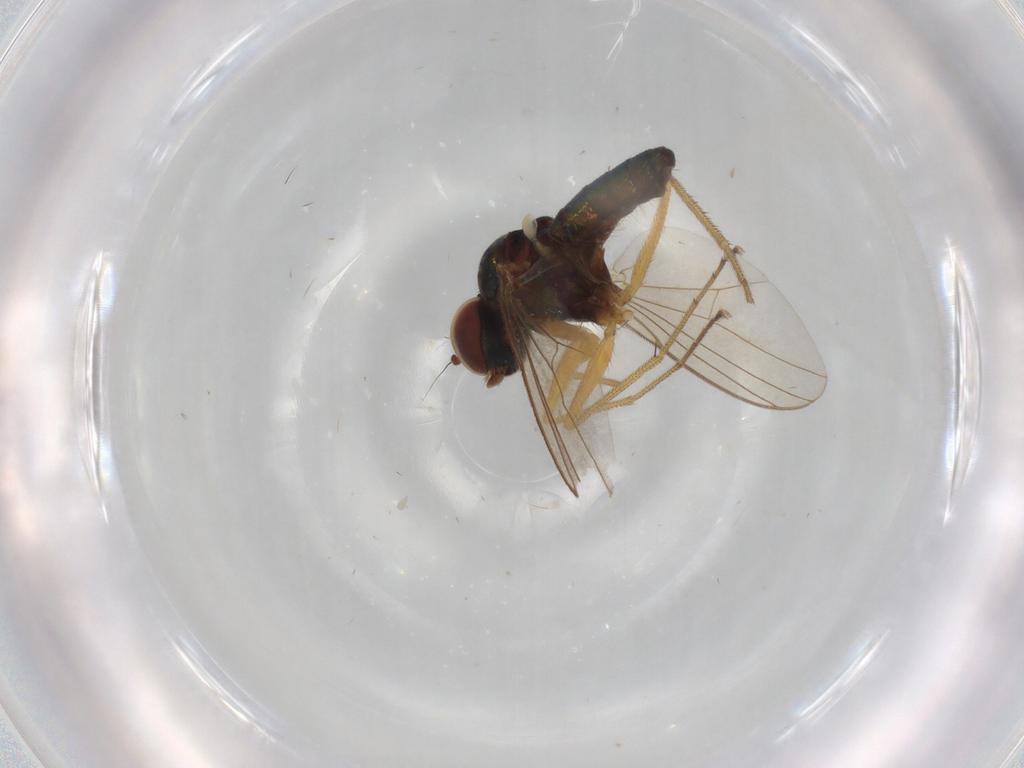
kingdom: Animalia
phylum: Arthropoda
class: Insecta
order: Diptera
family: Dolichopodidae
